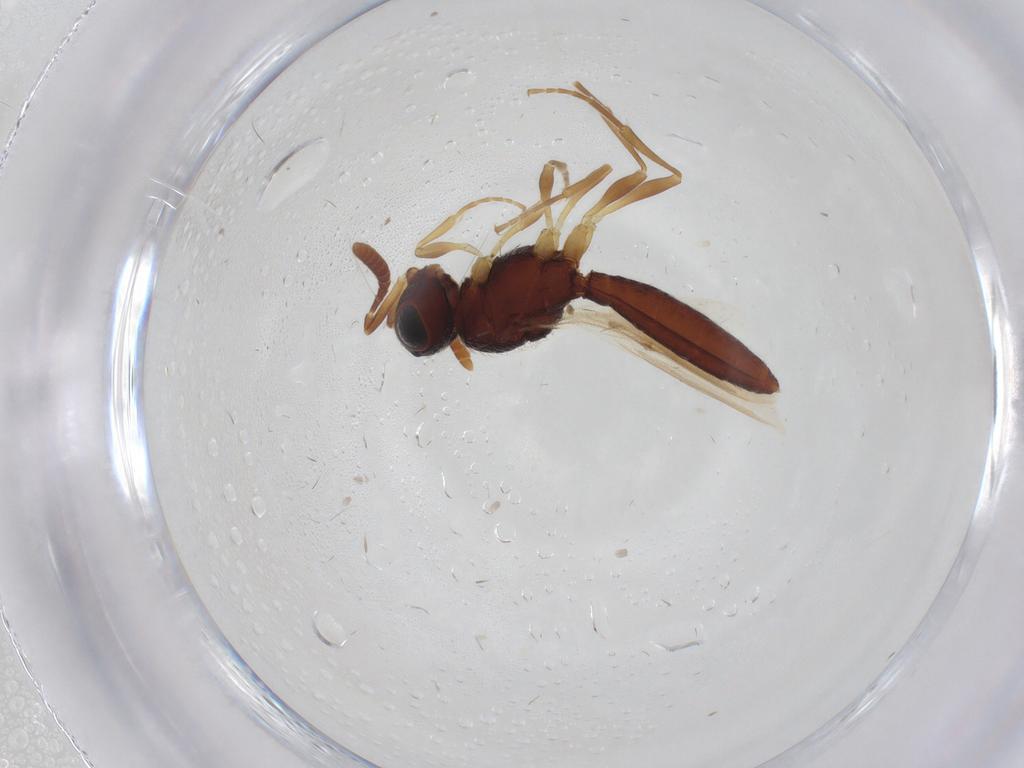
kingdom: Animalia
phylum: Arthropoda
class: Insecta
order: Hymenoptera
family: Scelionidae
